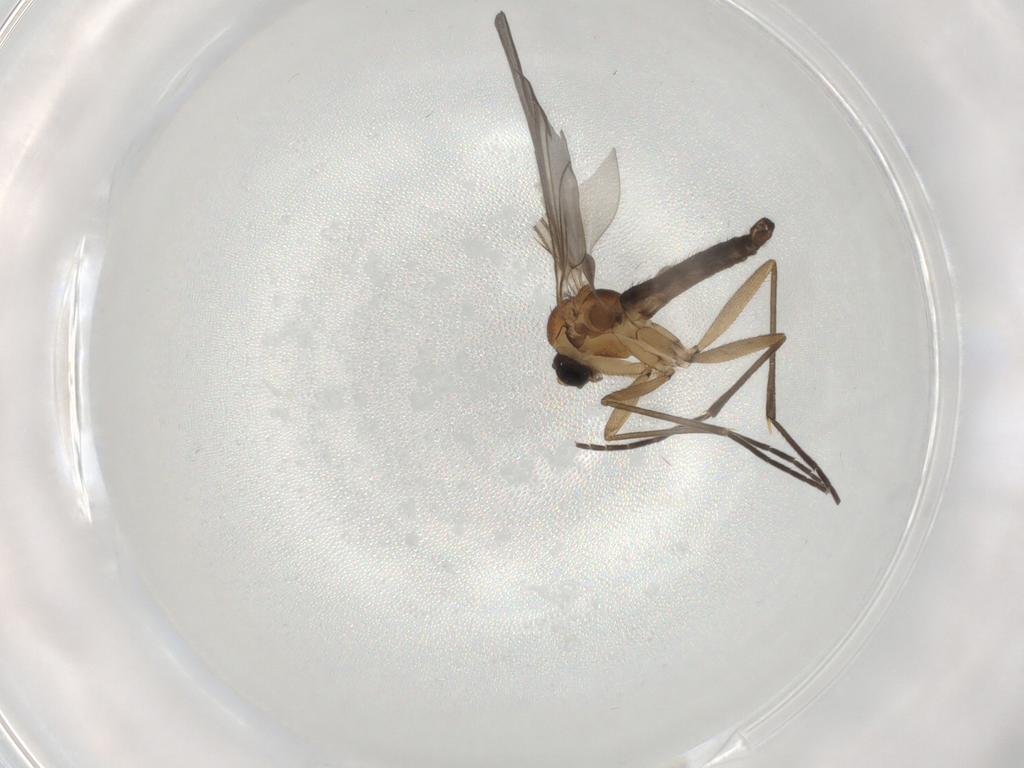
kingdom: Animalia
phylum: Arthropoda
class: Insecta
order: Diptera
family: Sciaridae
